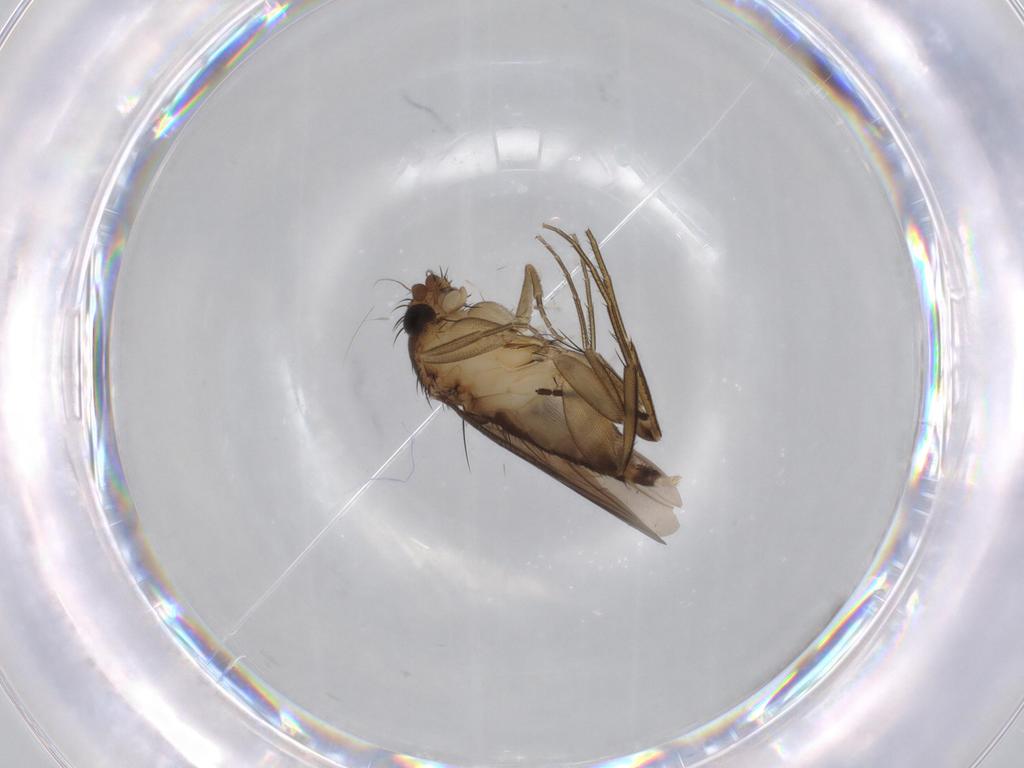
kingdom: Animalia
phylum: Arthropoda
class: Insecta
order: Diptera
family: Phoridae
